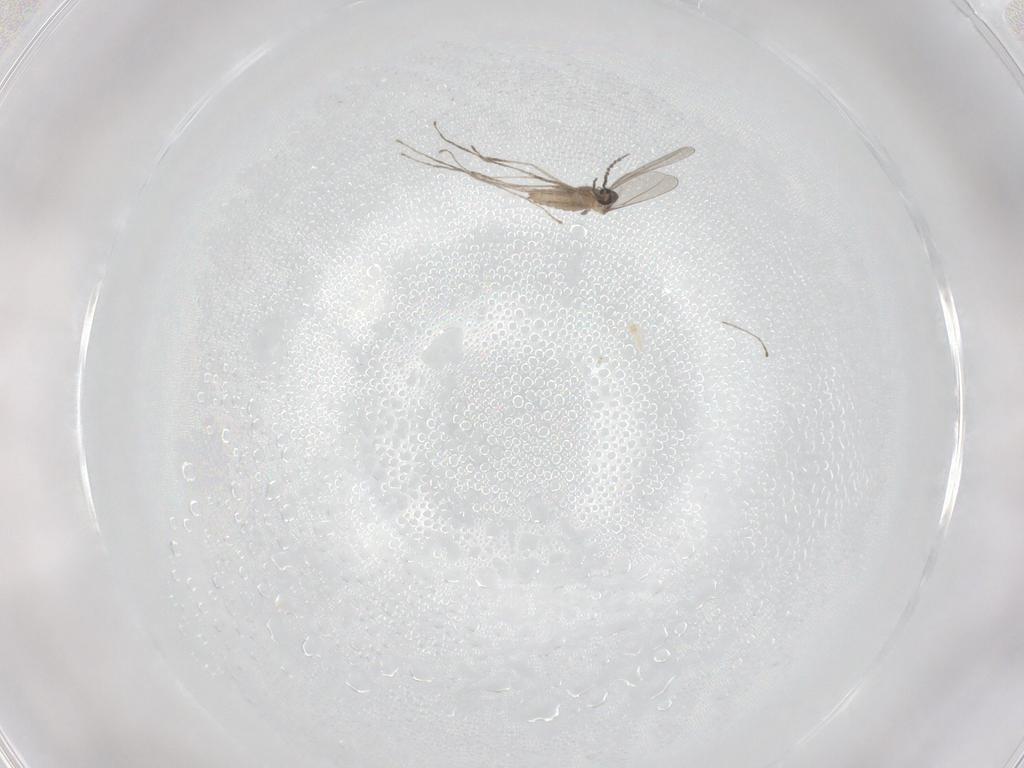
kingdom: Animalia
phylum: Arthropoda
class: Insecta
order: Diptera
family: Cecidomyiidae
